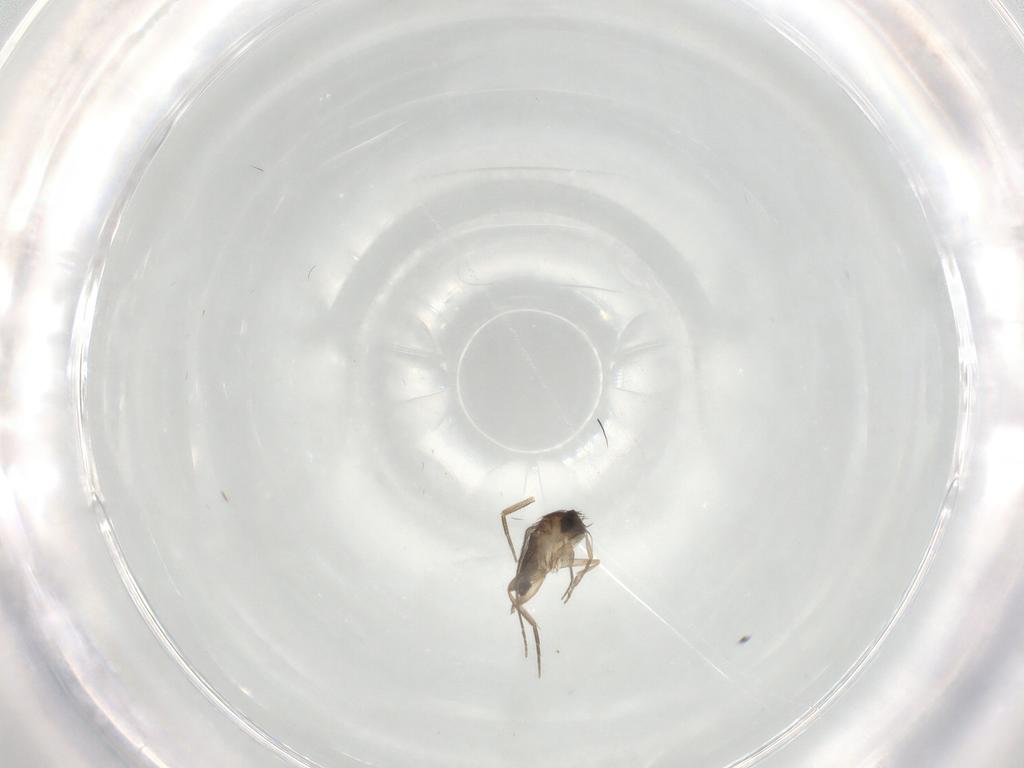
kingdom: Animalia
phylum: Arthropoda
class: Insecta
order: Diptera
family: Phoridae
